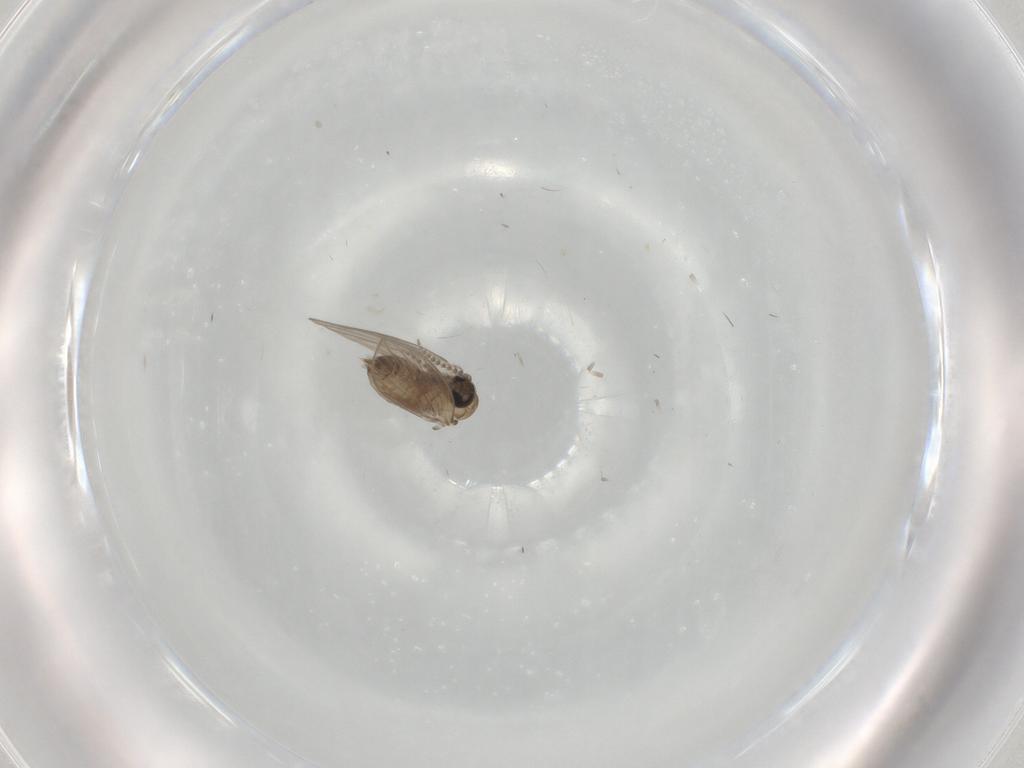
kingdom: Animalia
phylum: Arthropoda
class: Insecta
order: Diptera
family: Psychodidae
